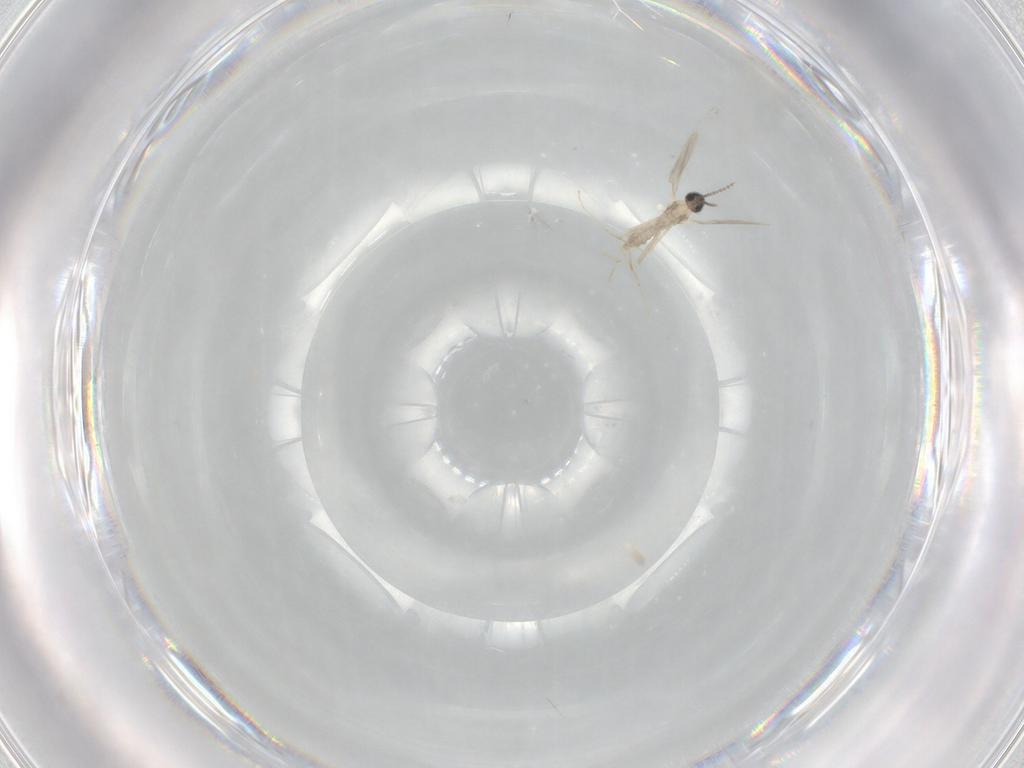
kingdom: Animalia
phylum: Arthropoda
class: Insecta
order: Diptera
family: Cecidomyiidae
